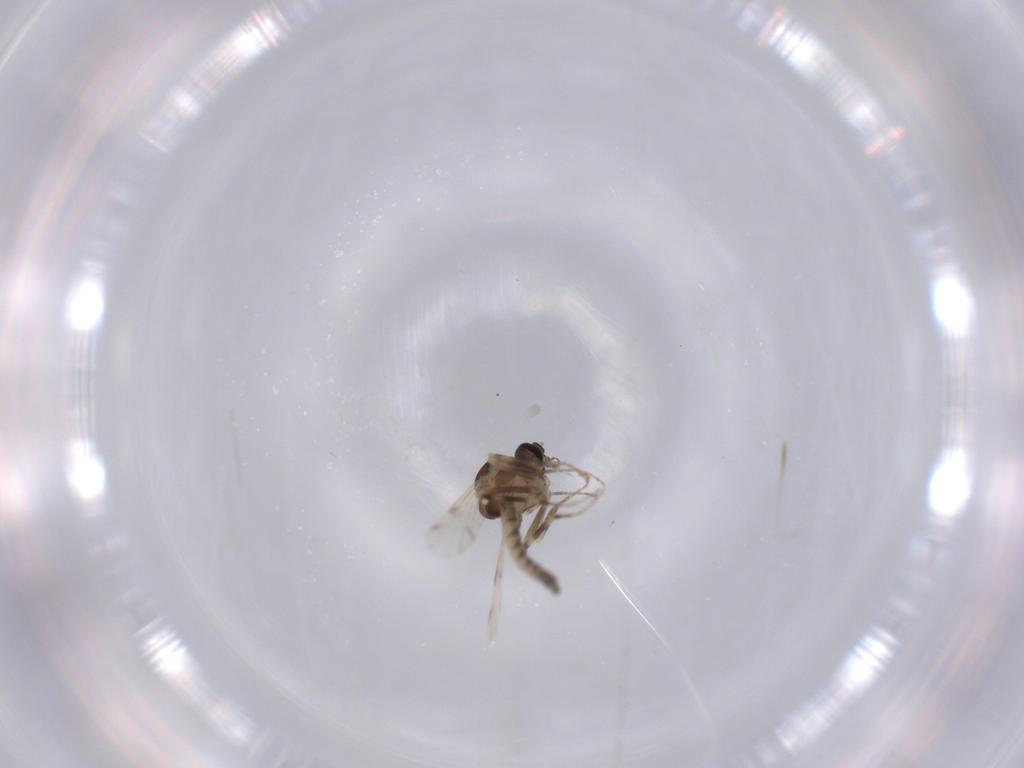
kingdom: Animalia
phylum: Arthropoda
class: Insecta
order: Diptera
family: Ceratopogonidae
